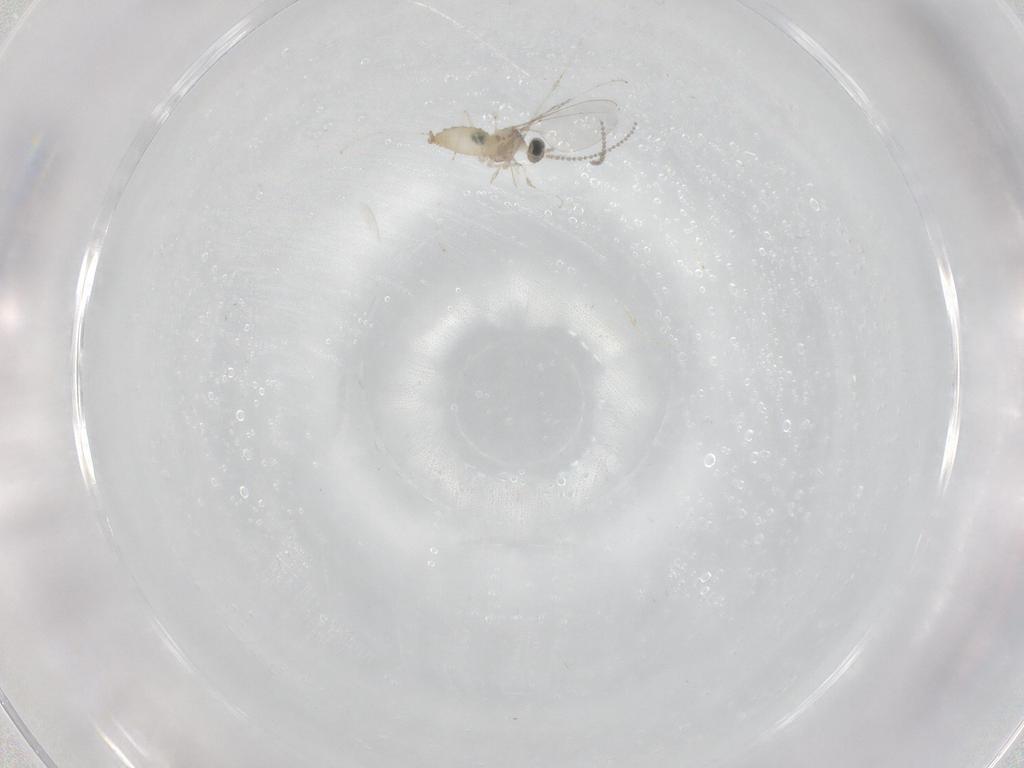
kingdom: Animalia
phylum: Arthropoda
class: Insecta
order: Diptera
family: Cecidomyiidae
